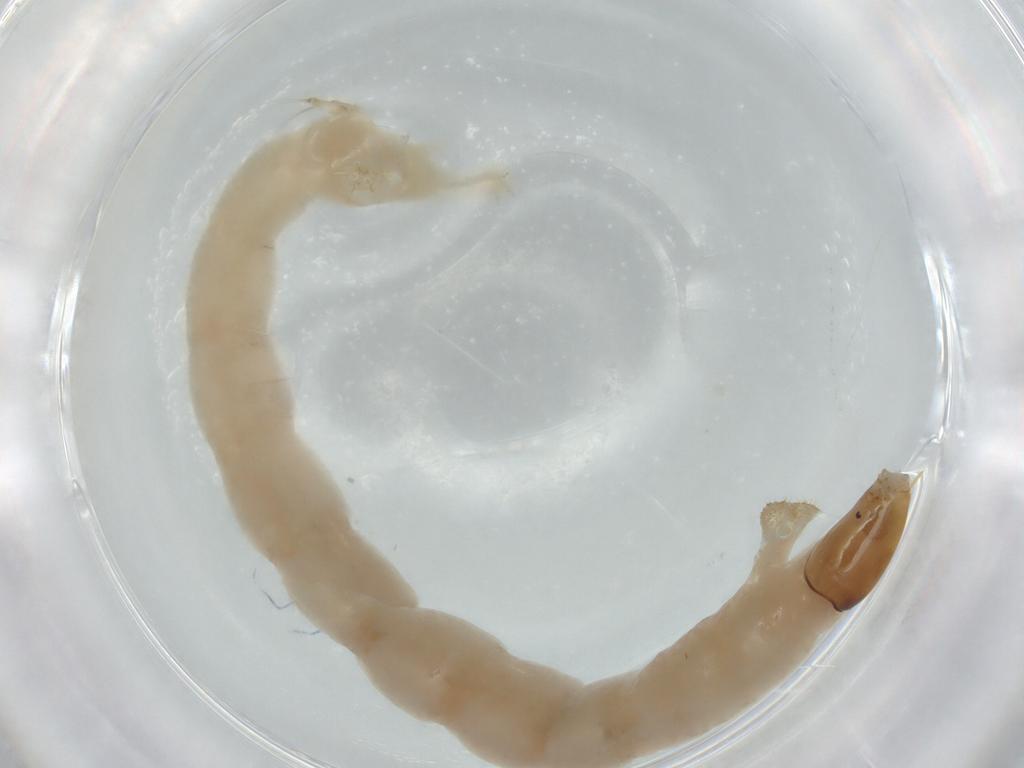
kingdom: Animalia
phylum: Arthropoda
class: Insecta
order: Diptera
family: Chironomidae
